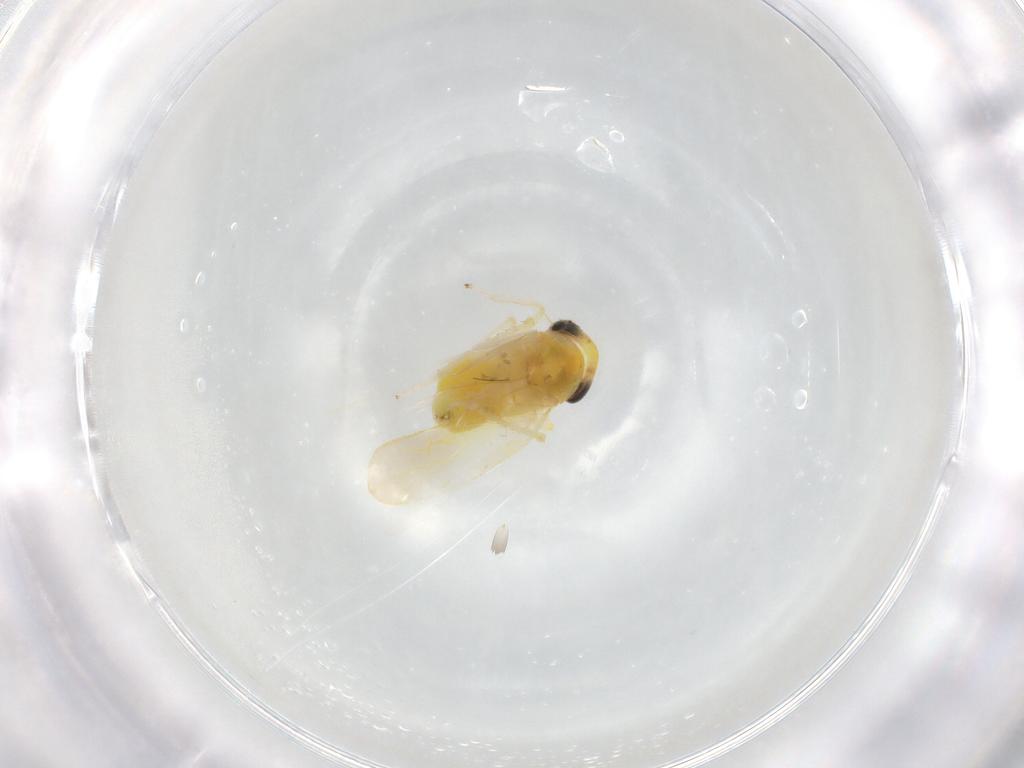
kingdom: Animalia
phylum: Arthropoda
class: Insecta
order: Hemiptera
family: Cicadellidae
